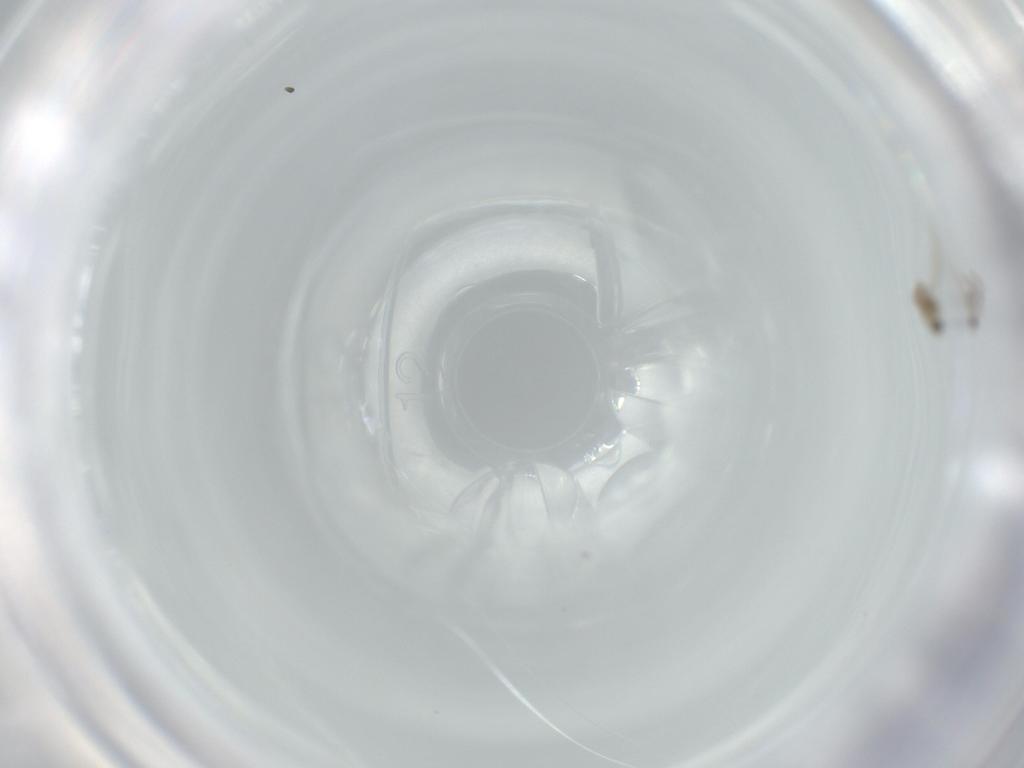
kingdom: Animalia
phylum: Arthropoda
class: Insecta
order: Diptera
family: Cecidomyiidae
